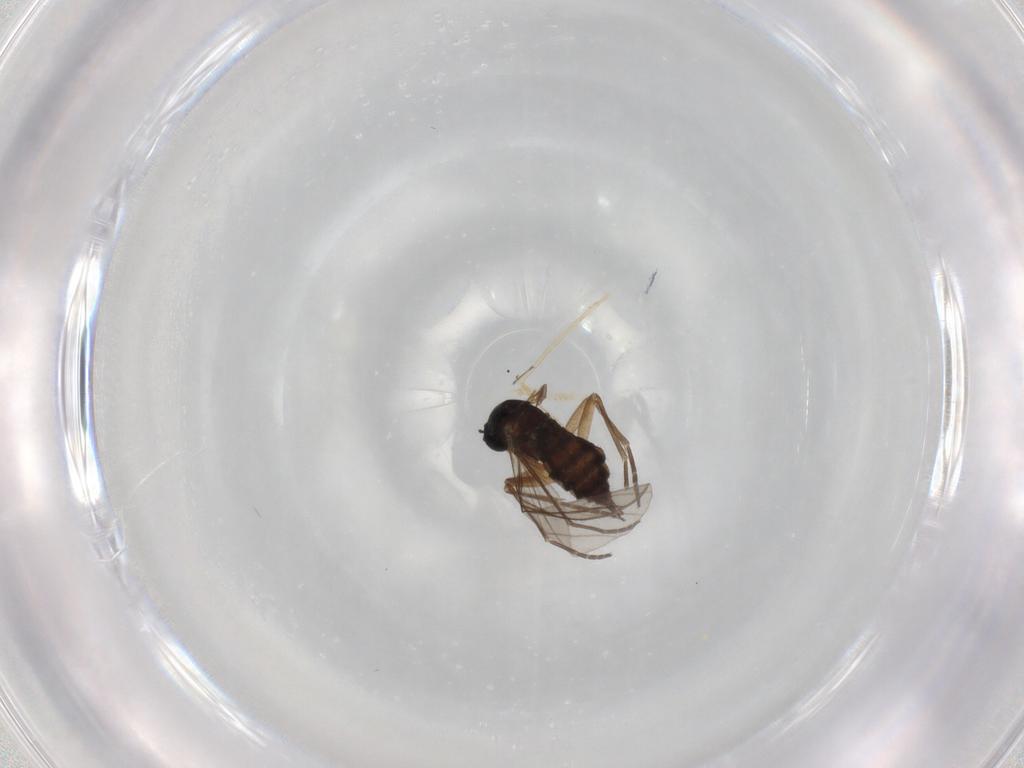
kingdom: Animalia
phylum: Arthropoda
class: Insecta
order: Diptera
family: Sciaridae
